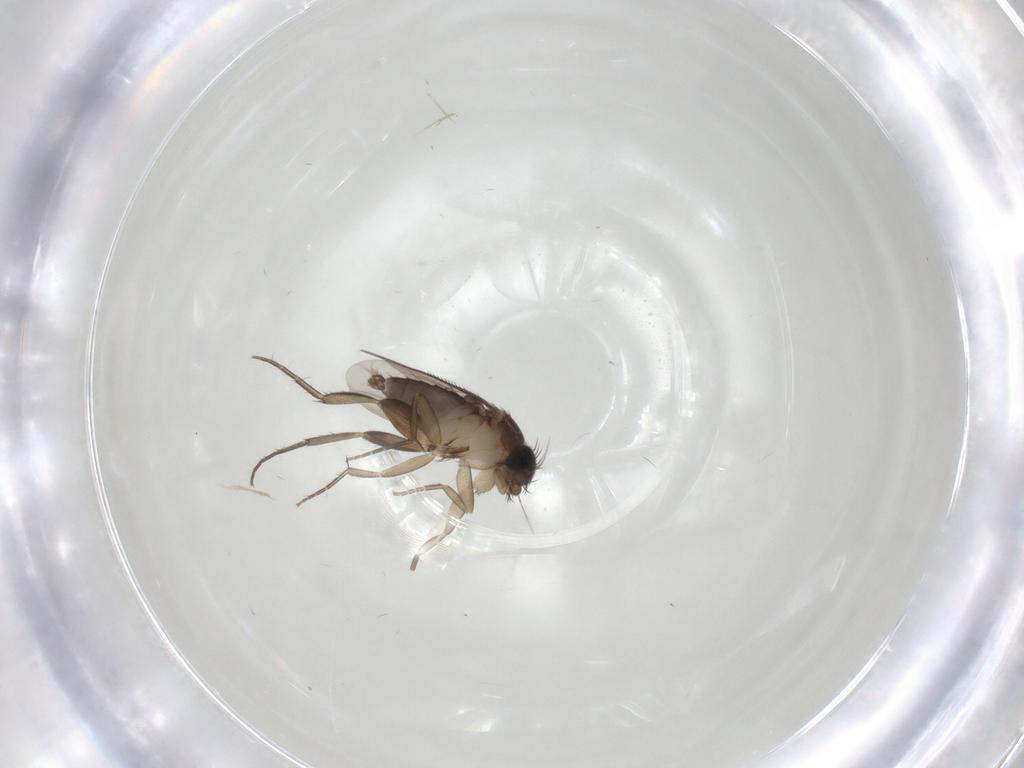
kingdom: Animalia
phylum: Arthropoda
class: Insecta
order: Diptera
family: Phoridae
